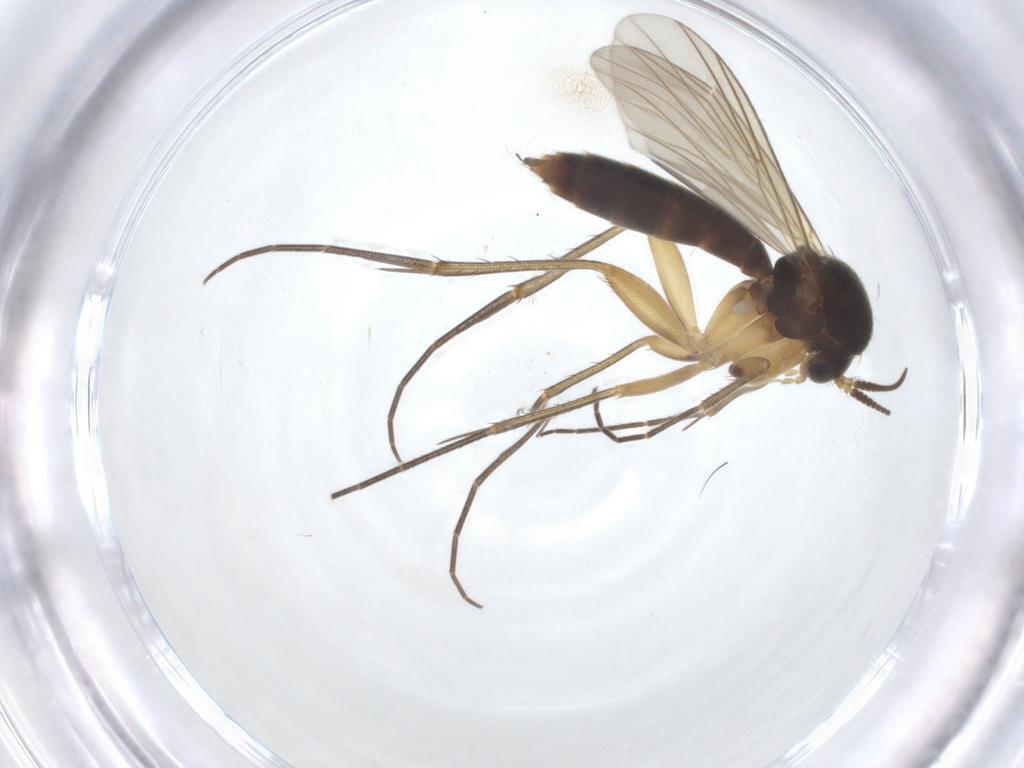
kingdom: Animalia
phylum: Arthropoda
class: Insecta
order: Diptera
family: Mycetophilidae
